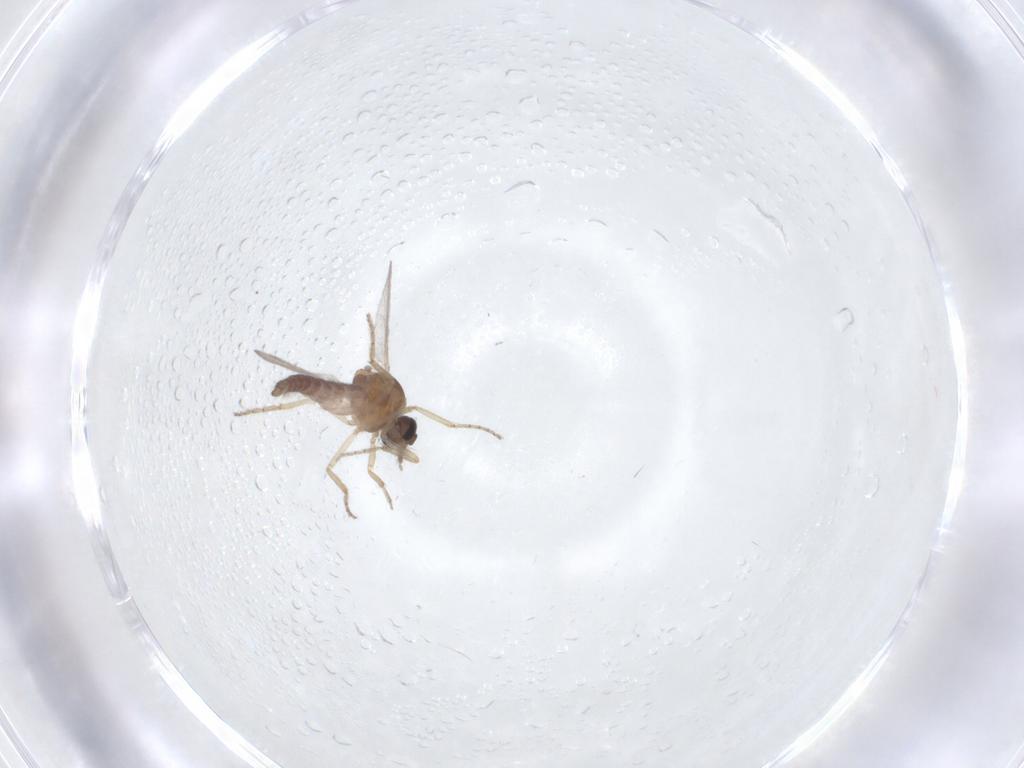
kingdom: Animalia
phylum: Arthropoda
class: Insecta
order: Diptera
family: Ceratopogonidae
